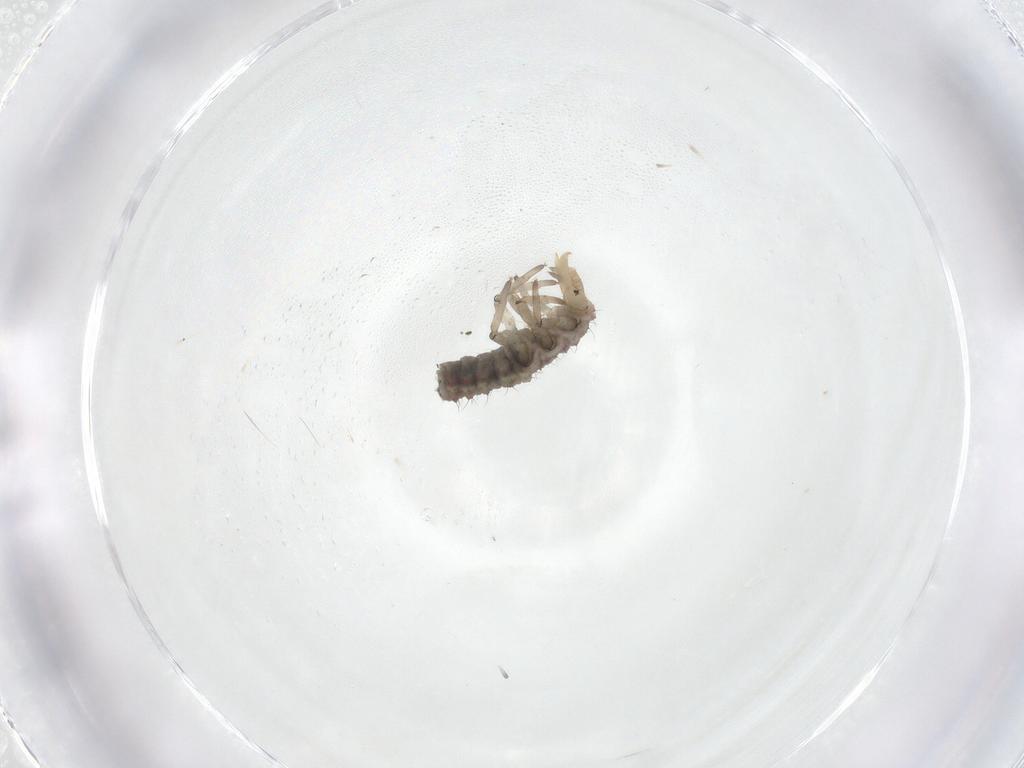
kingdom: Animalia
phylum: Arthropoda
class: Insecta
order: Neuroptera
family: Hemerobiidae
